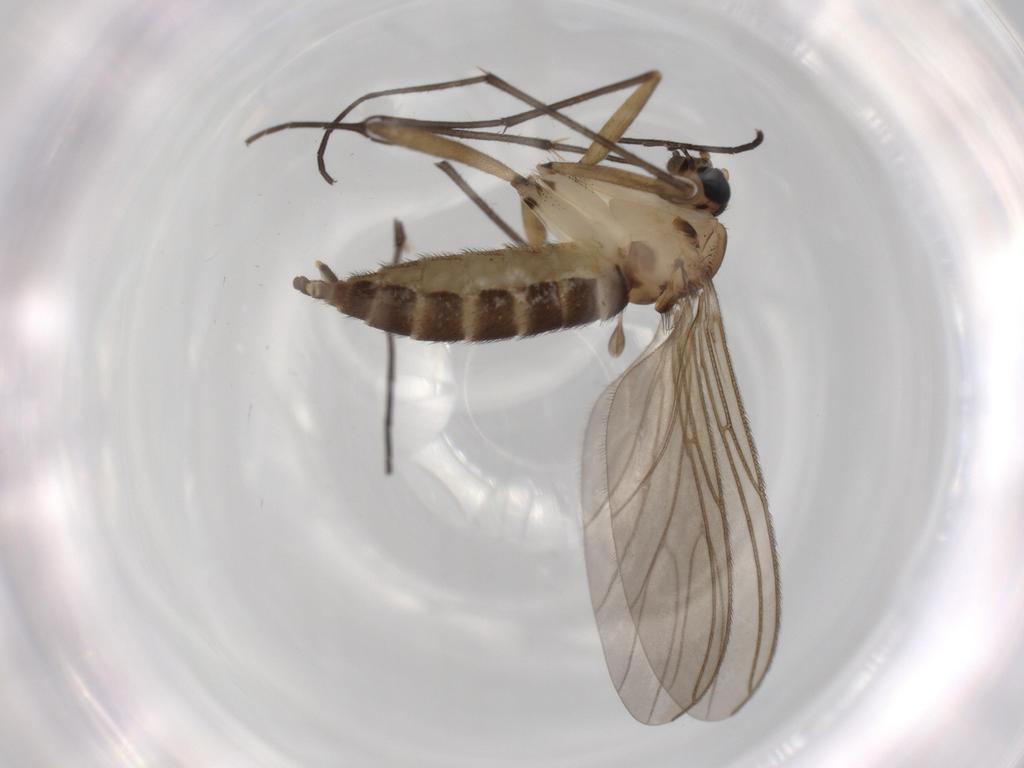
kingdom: Animalia
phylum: Arthropoda
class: Insecta
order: Diptera
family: Sciaridae
